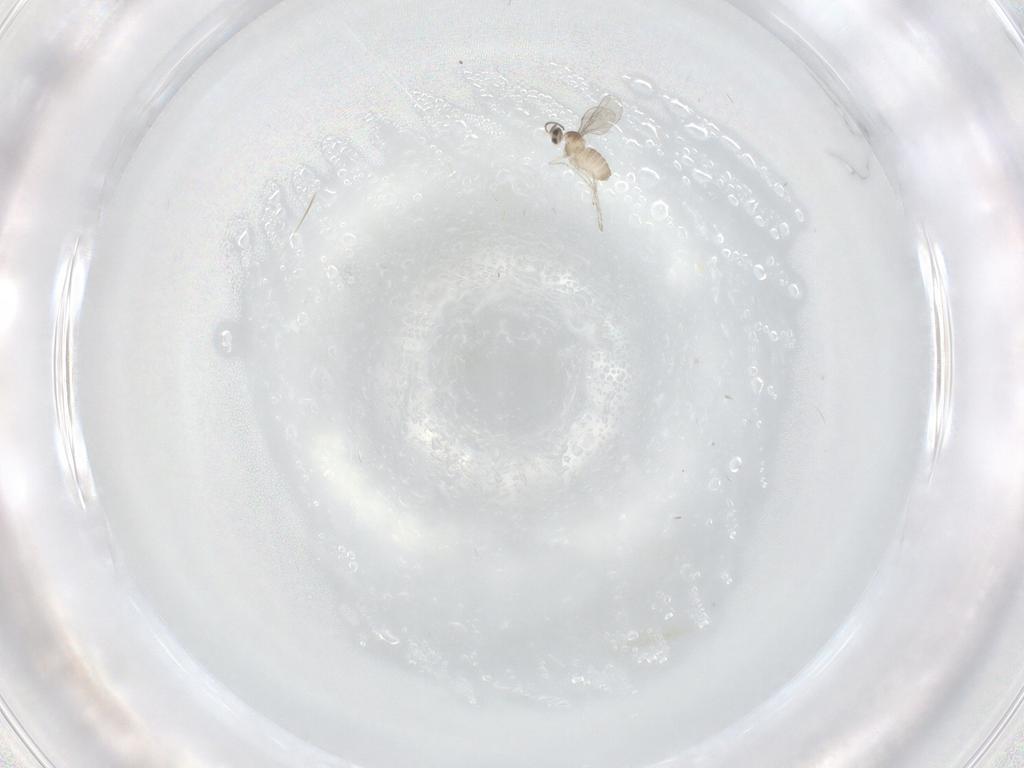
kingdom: Animalia
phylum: Arthropoda
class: Insecta
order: Diptera
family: Cecidomyiidae
